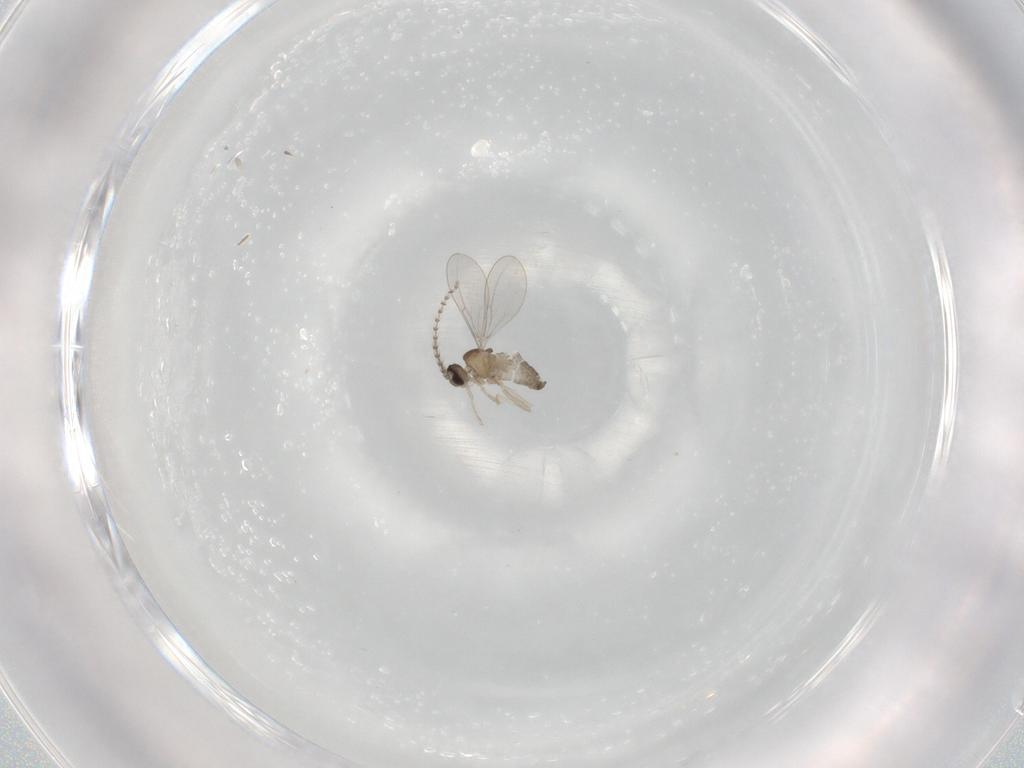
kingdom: Animalia
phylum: Arthropoda
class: Insecta
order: Diptera
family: Cecidomyiidae
